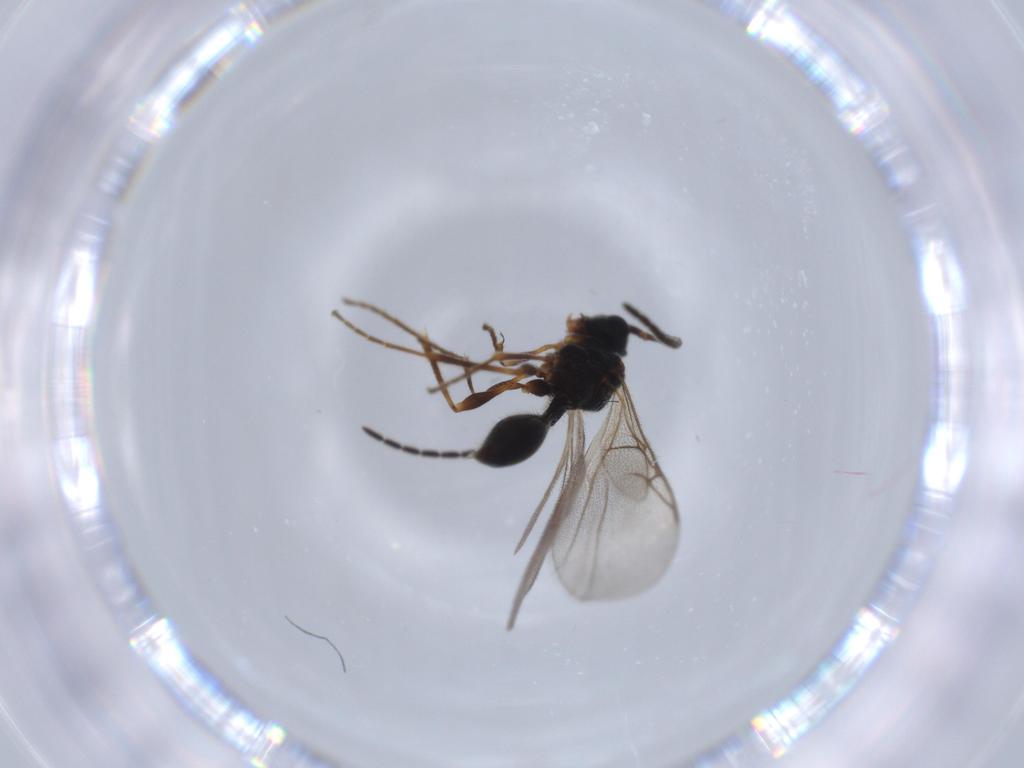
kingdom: Animalia
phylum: Arthropoda
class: Insecta
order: Hymenoptera
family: Diapriidae
